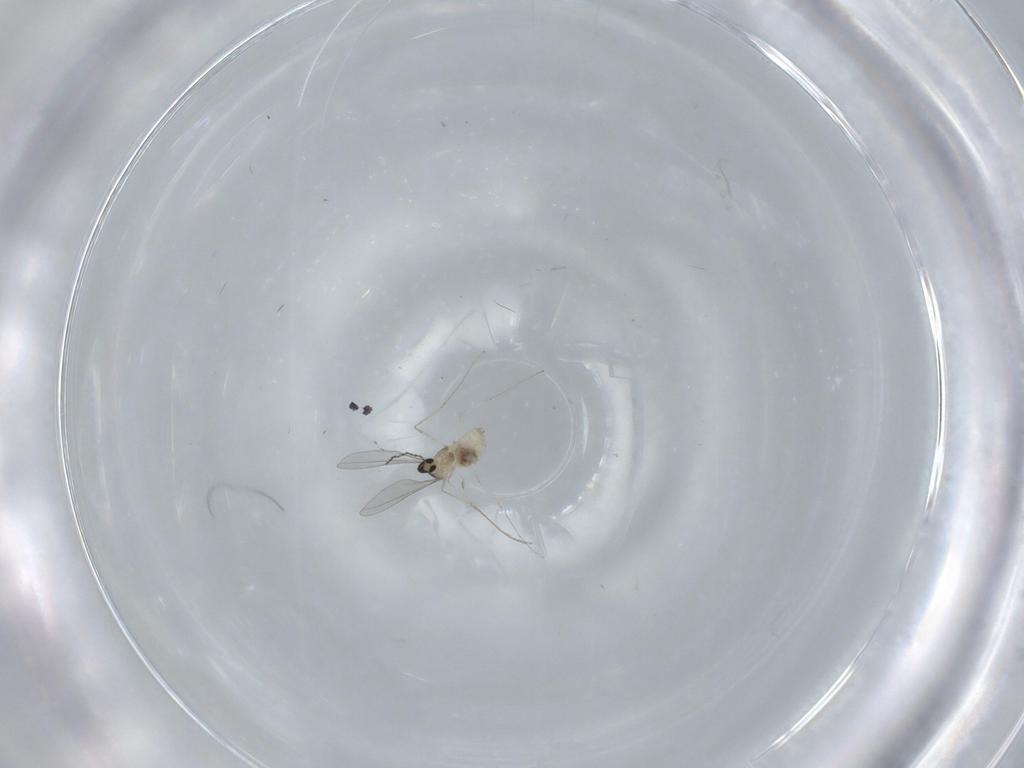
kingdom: Animalia
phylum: Arthropoda
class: Insecta
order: Diptera
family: Cecidomyiidae
